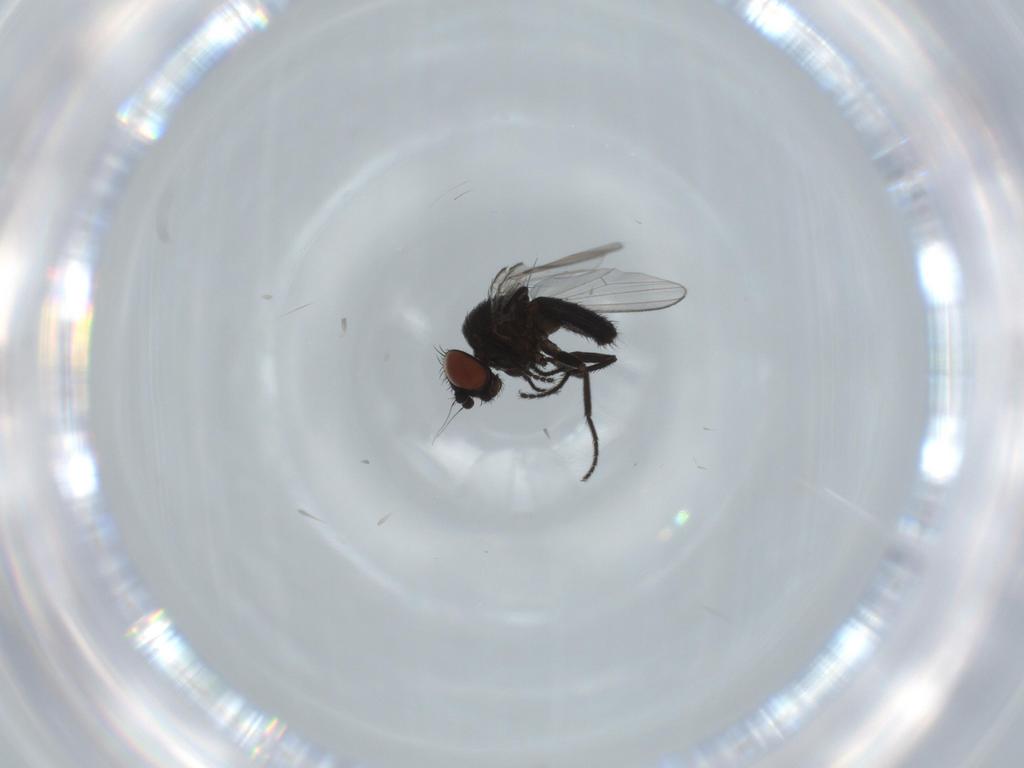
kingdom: Animalia
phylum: Arthropoda
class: Insecta
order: Diptera
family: Milichiidae
